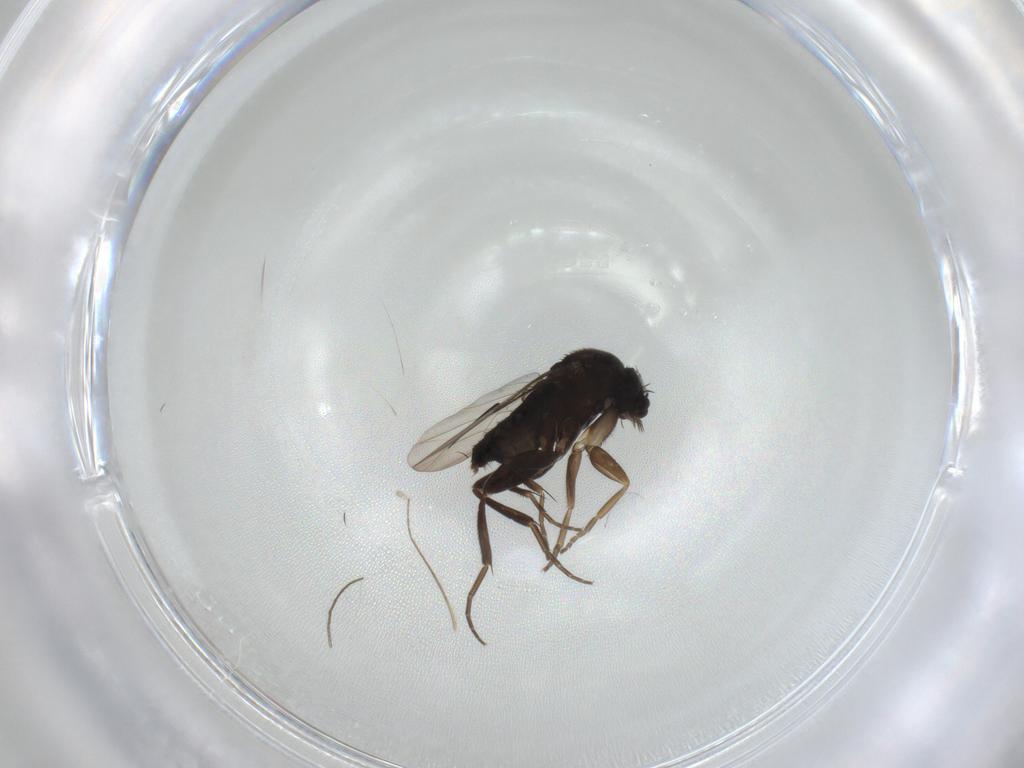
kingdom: Animalia
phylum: Arthropoda
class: Insecta
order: Diptera
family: Phoridae
